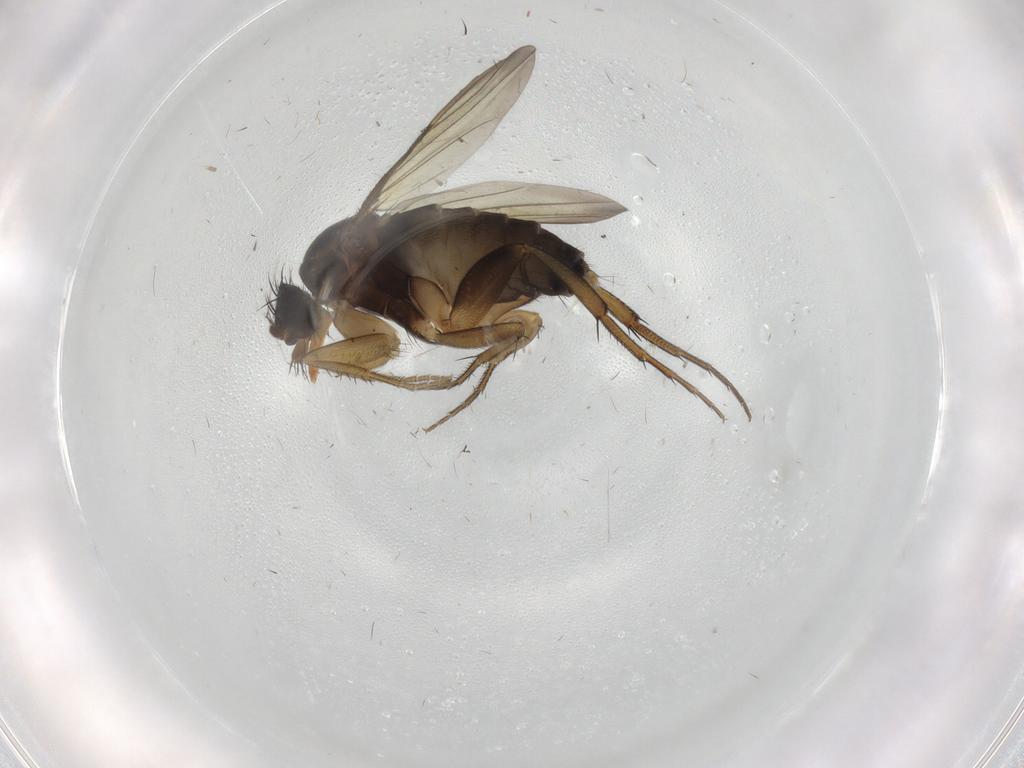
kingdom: Animalia
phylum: Arthropoda
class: Insecta
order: Diptera
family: Phoridae
